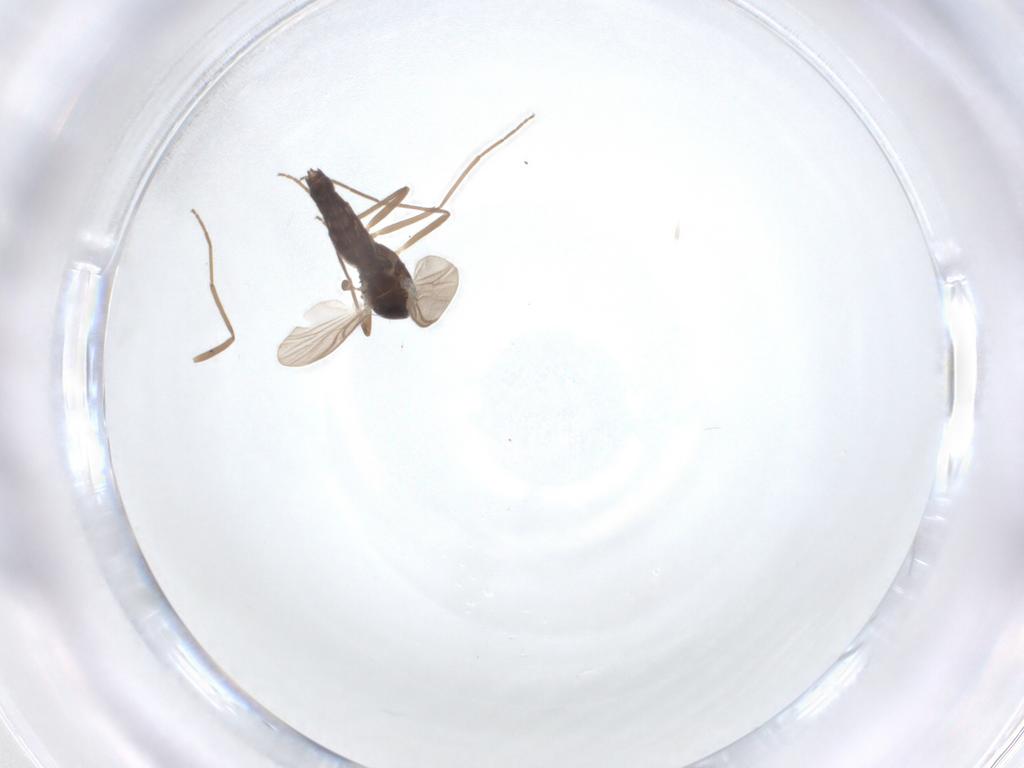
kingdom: Animalia
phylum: Arthropoda
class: Insecta
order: Diptera
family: Chironomidae
